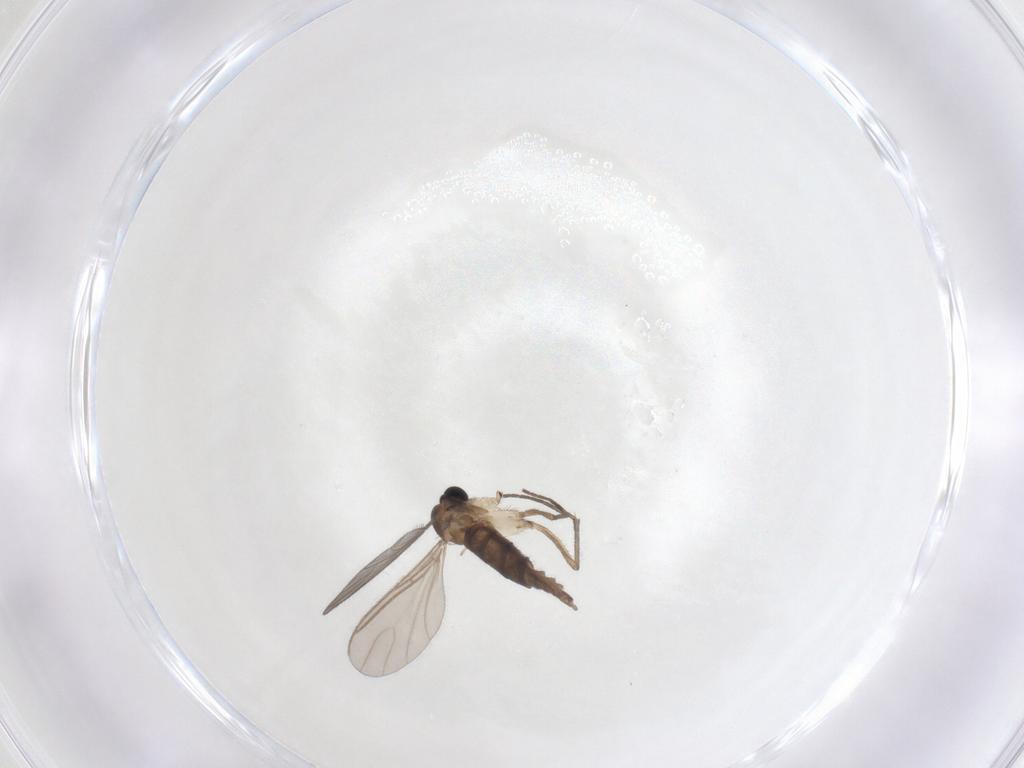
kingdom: Animalia
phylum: Arthropoda
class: Insecta
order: Diptera
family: Sciaridae
